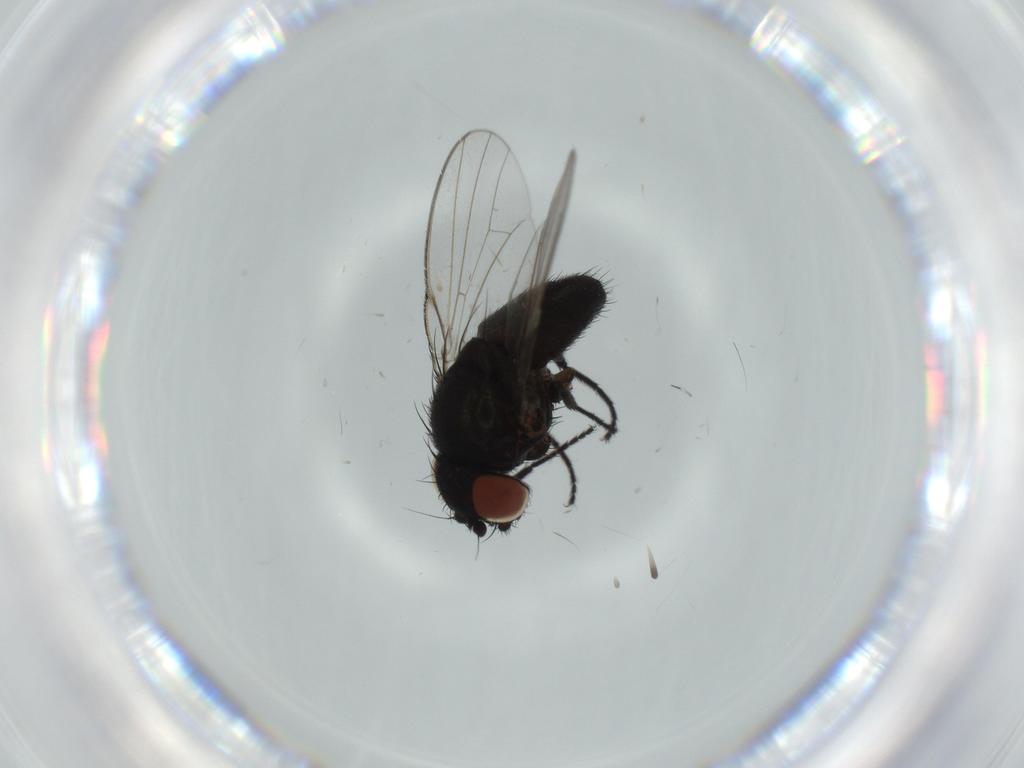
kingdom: Animalia
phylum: Arthropoda
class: Insecta
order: Diptera
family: Milichiidae
